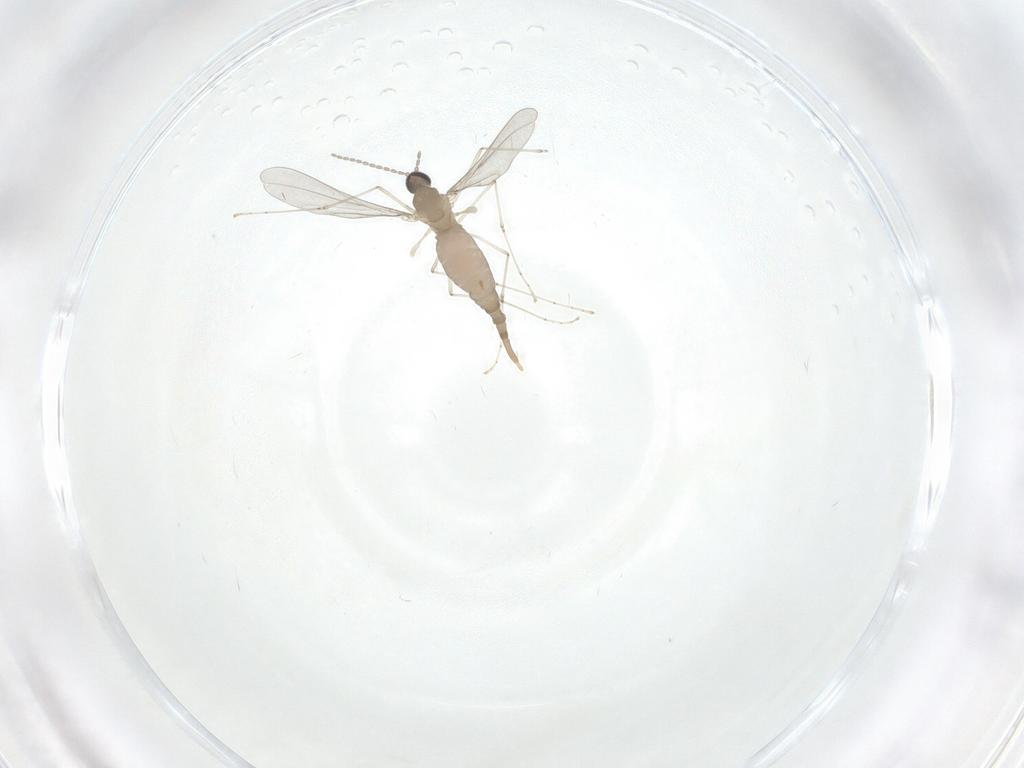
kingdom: Animalia
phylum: Arthropoda
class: Insecta
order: Diptera
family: Cecidomyiidae
